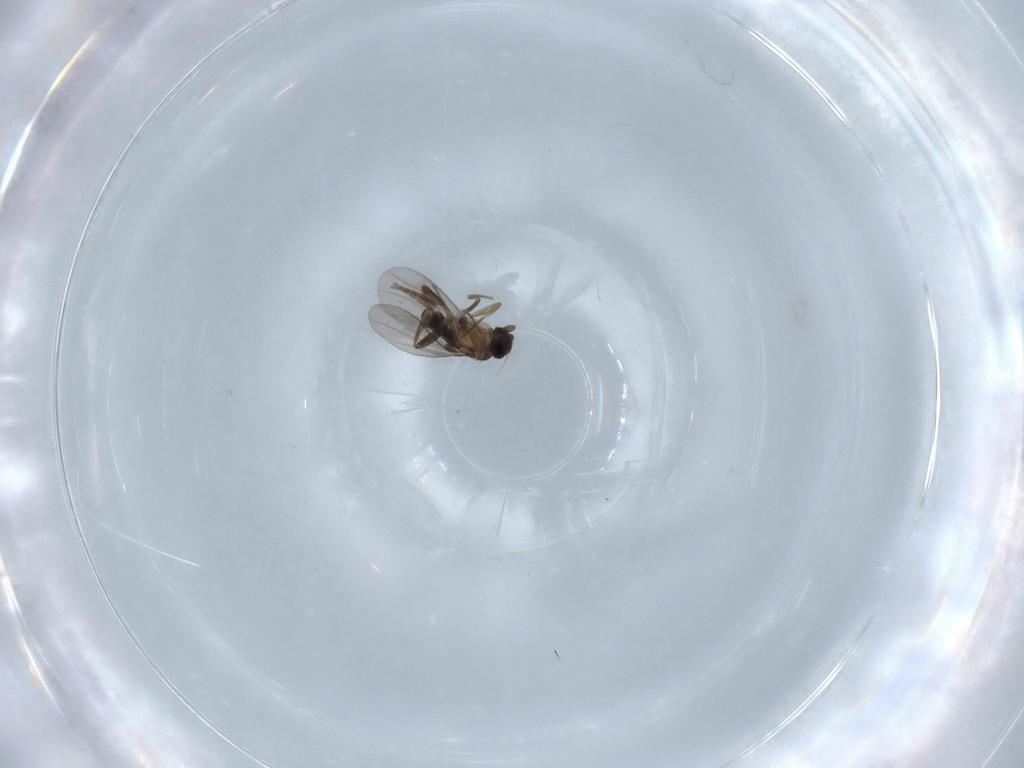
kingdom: Animalia
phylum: Arthropoda
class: Insecta
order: Diptera
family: Chironomidae
